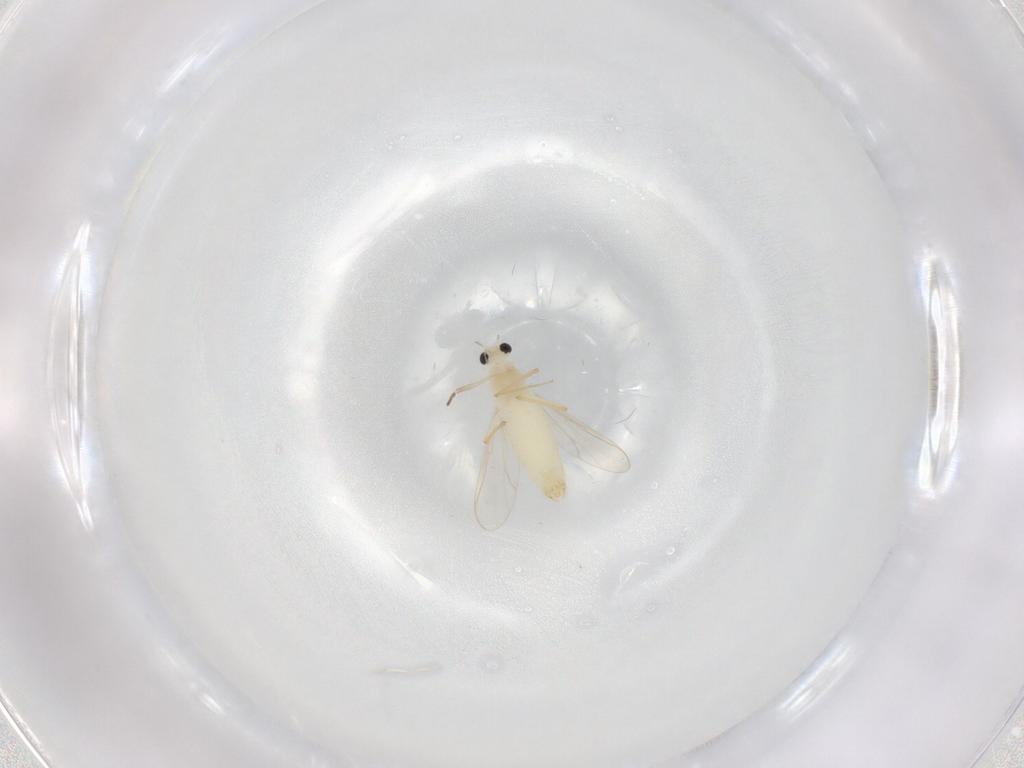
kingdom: Animalia
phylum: Arthropoda
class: Insecta
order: Diptera
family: Chironomidae
